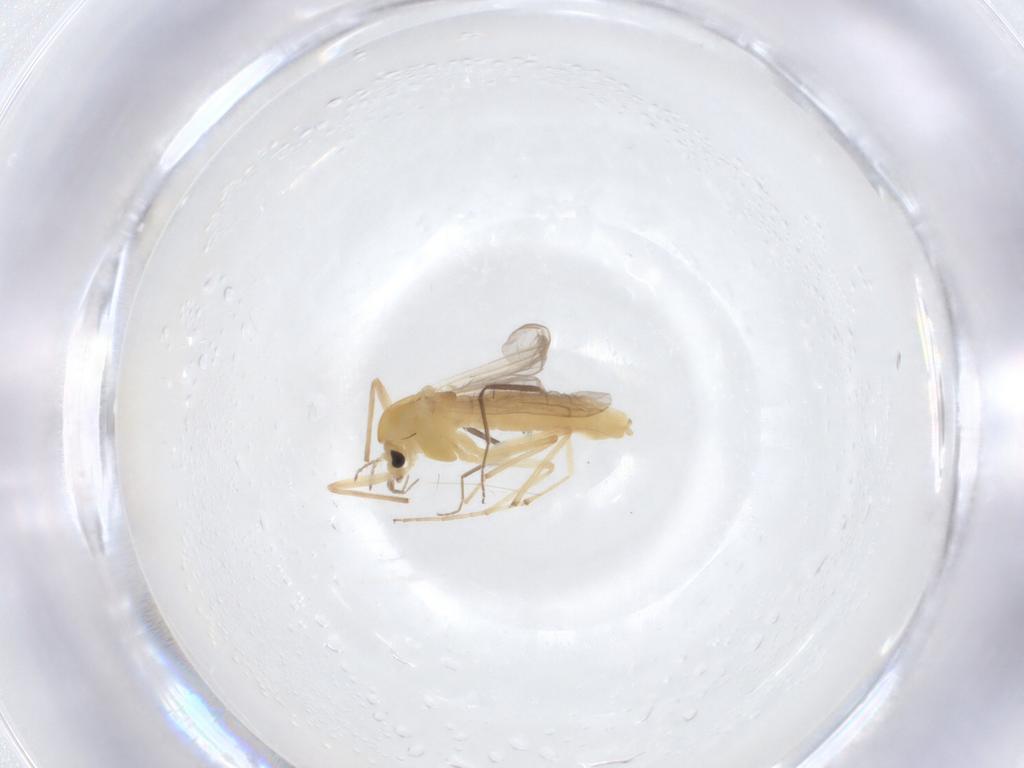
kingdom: Animalia
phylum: Arthropoda
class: Insecta
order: Diptera
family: Chironomidae
